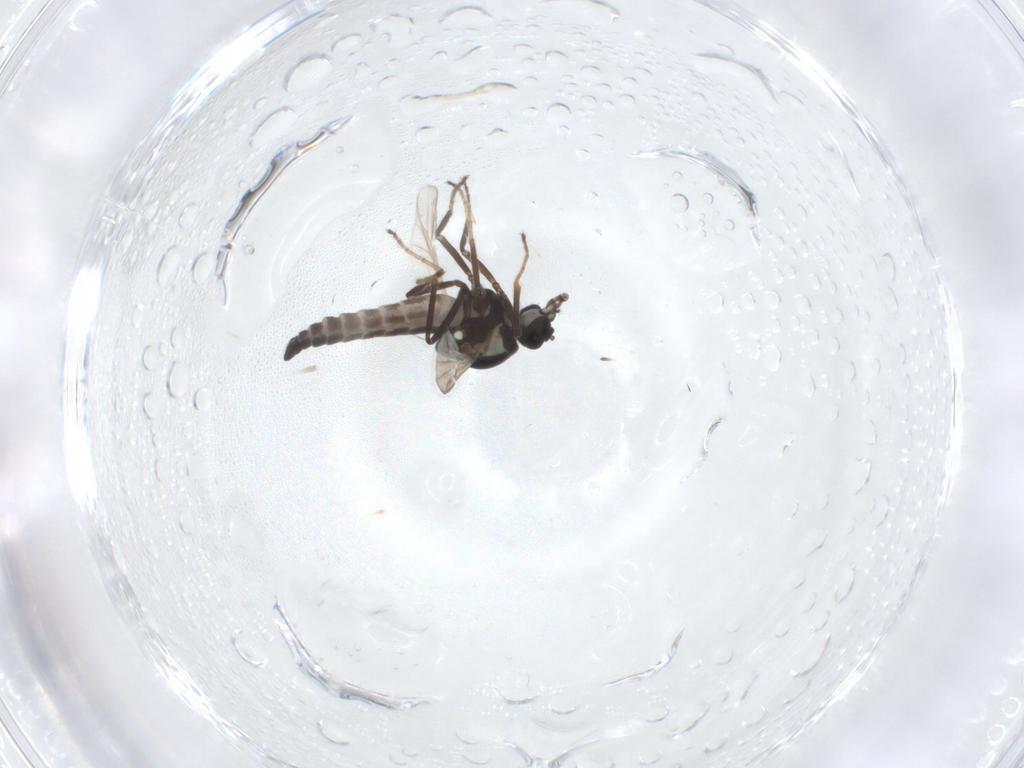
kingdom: Animalia
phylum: Arthropoda
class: Insecta
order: Diptera
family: Ceratopogonidae
